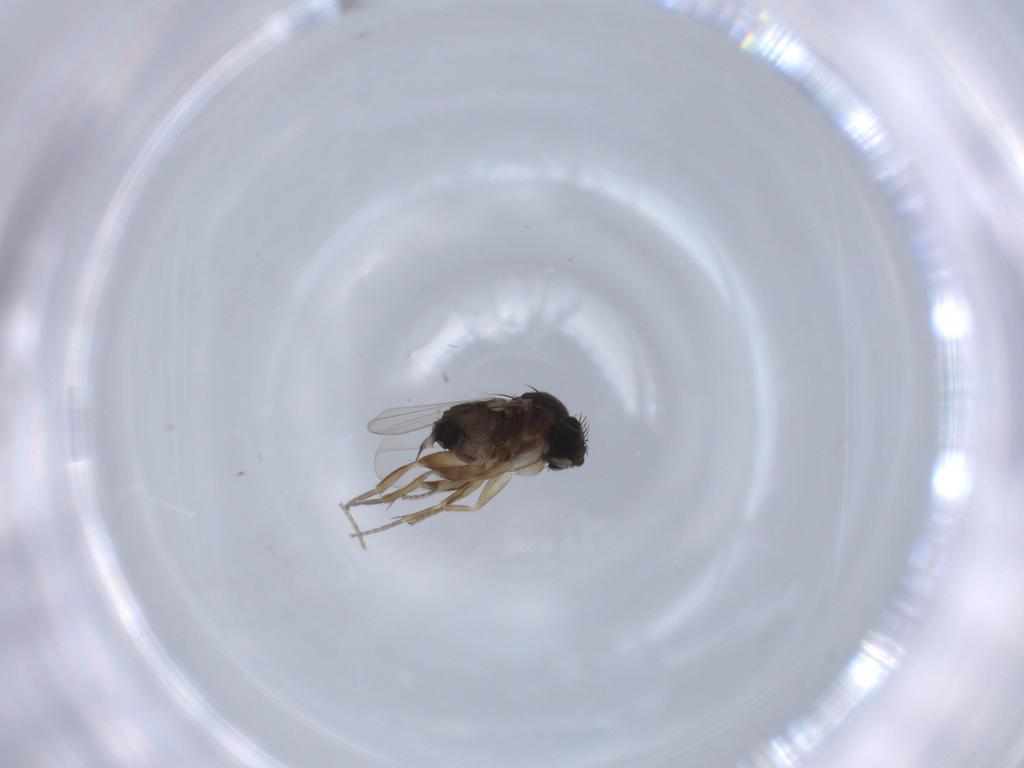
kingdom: Animalia
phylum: Arthropoda
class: Insecta
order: Diptera
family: Phoridae
